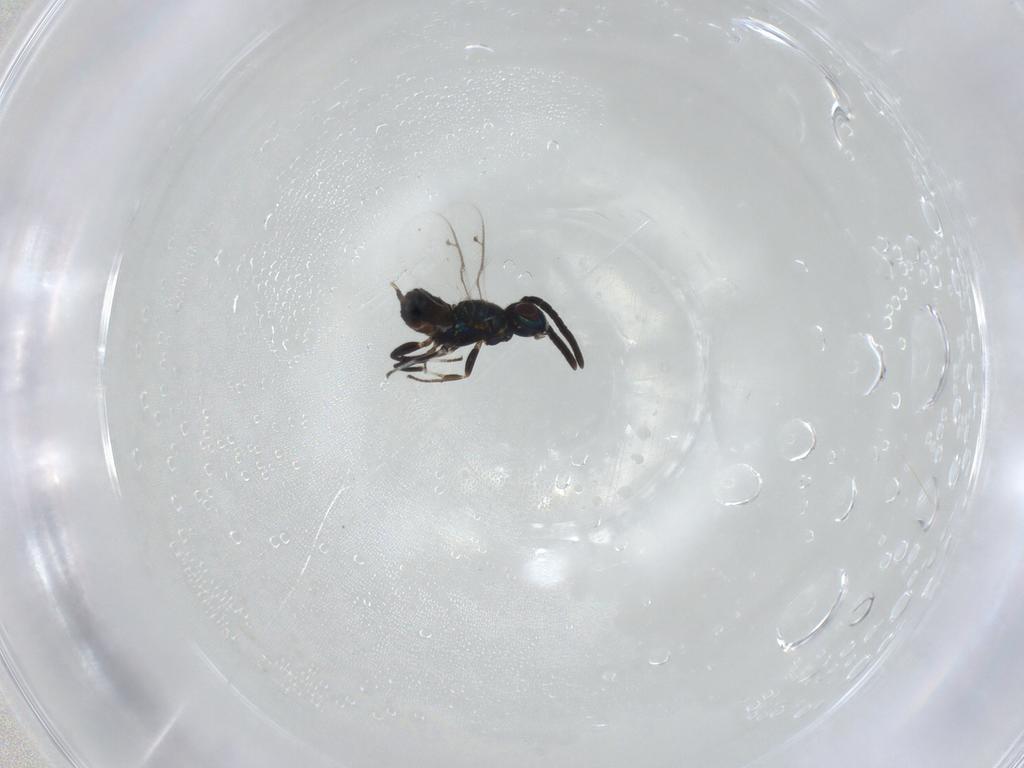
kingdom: Animalia
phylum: Arthropoda
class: Insecta
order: Hymenoptera
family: Eupelmidae
